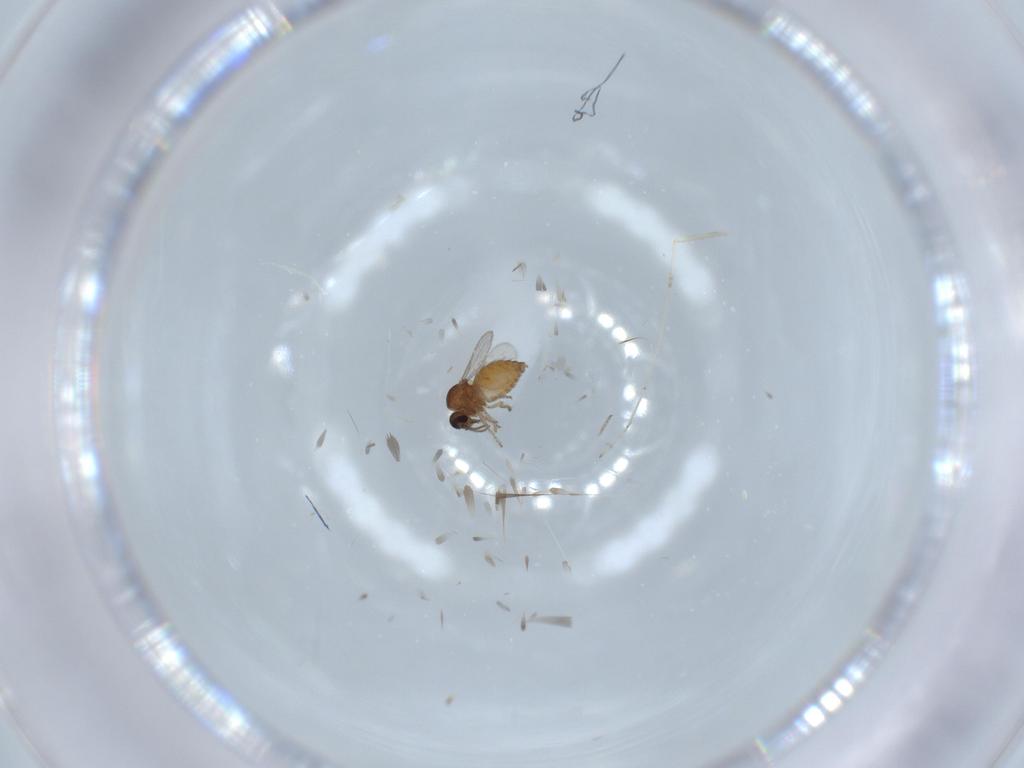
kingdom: Animalia
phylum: Arthropoda
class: Insecta
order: Diptera
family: Ceratopogonidae
